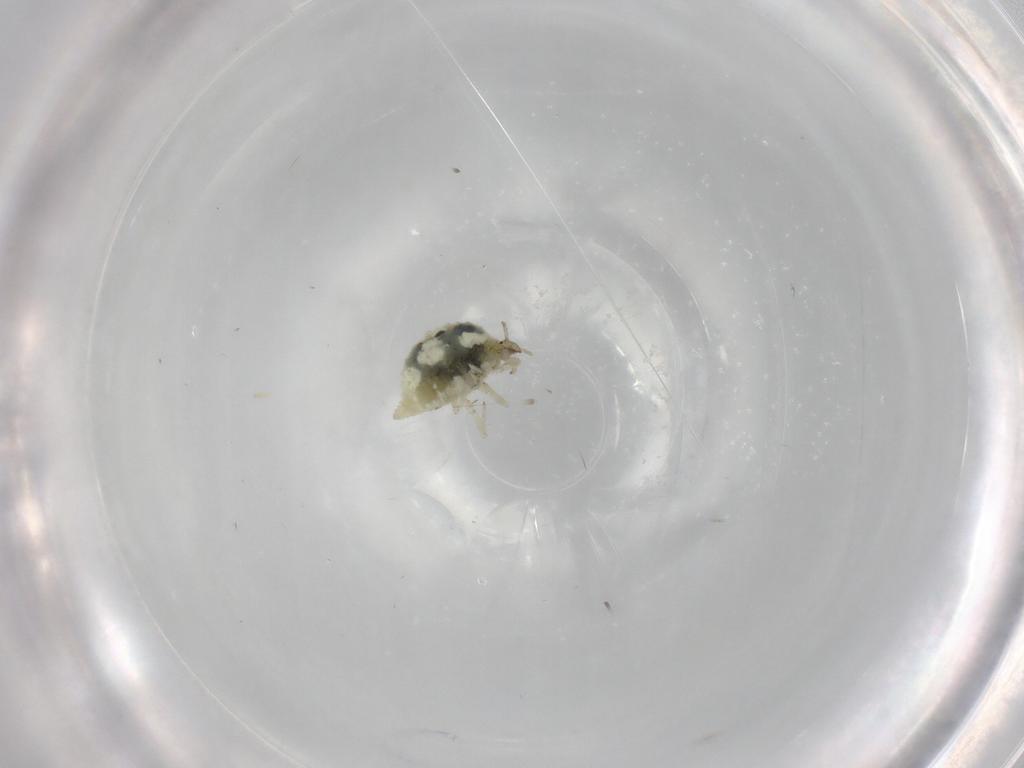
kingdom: Animalia
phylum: Arthropoda
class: Insecta
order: Neuroptera
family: Coniopterygidae
